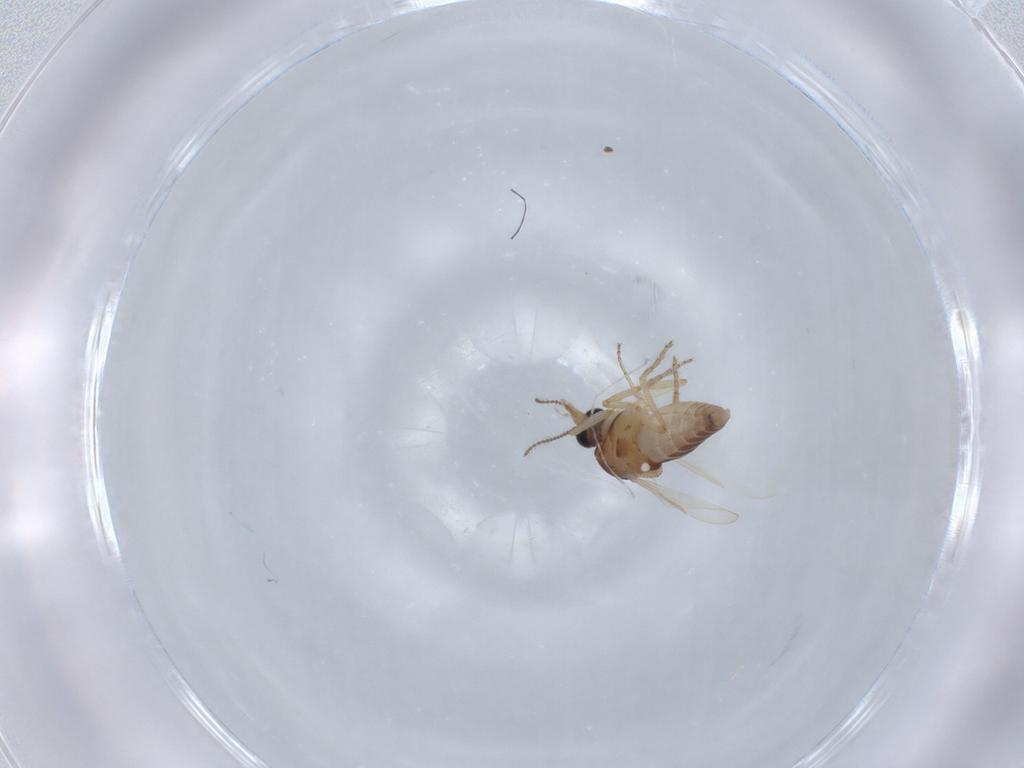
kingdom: Animalia
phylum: Arthropoda
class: Insecta
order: Diptera
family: Ceratopogonidae
